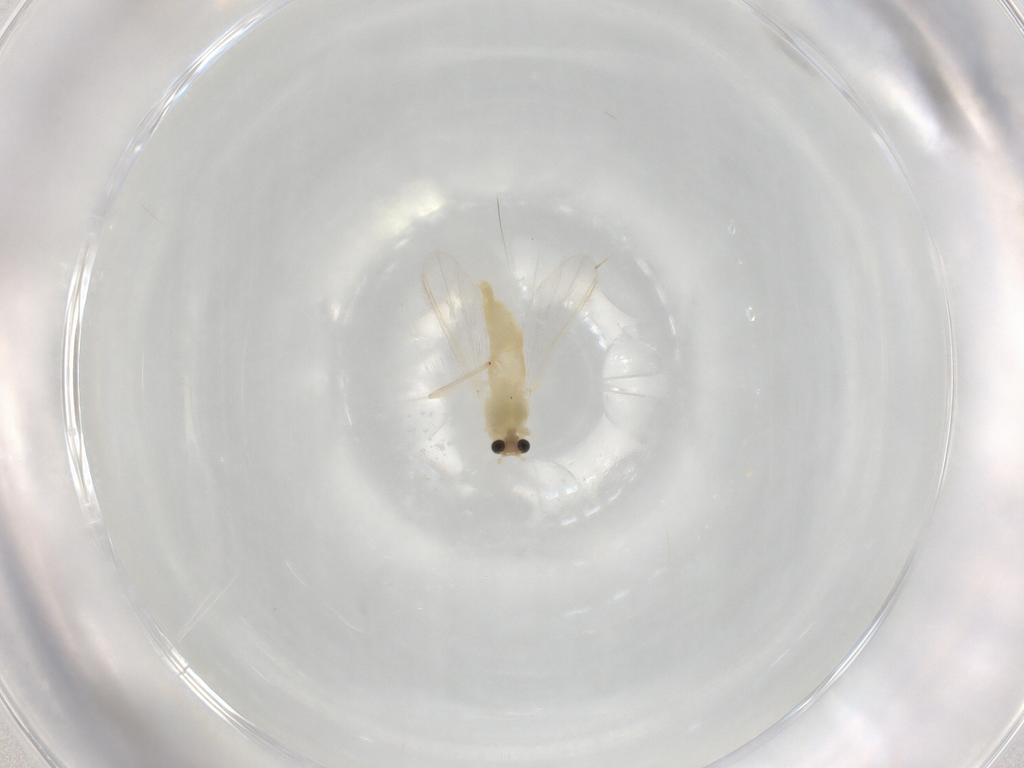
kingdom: Animalia
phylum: Arthropoda
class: Insecta
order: Diptera
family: Chironomidae
